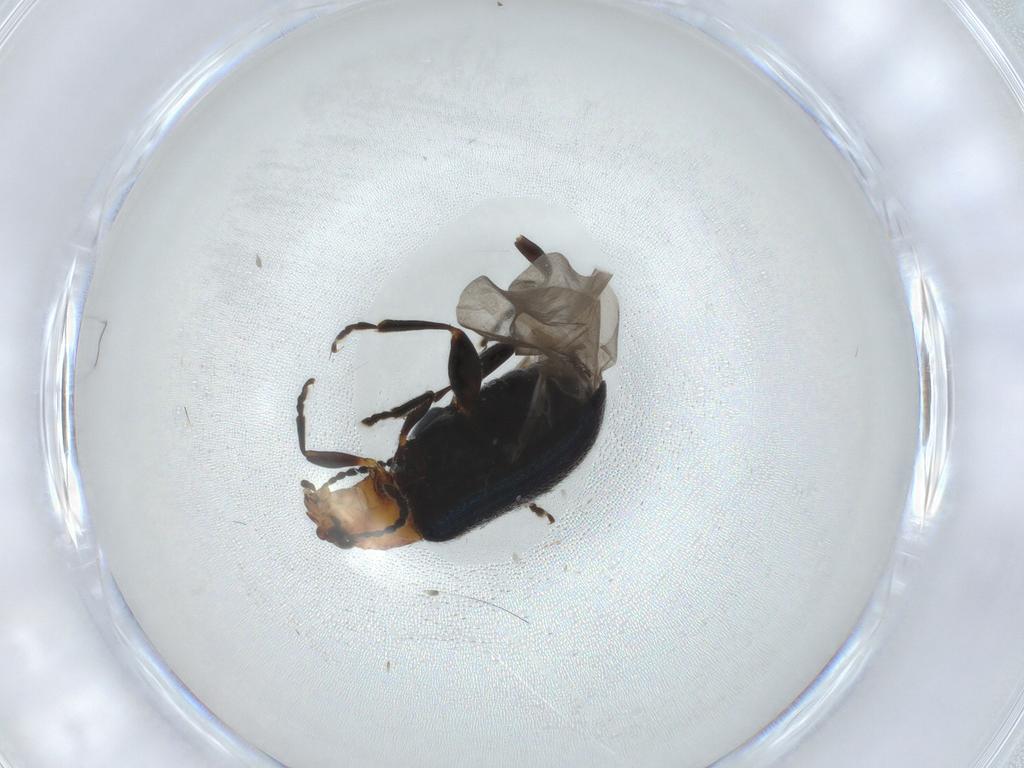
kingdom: Animalia
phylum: Arthropoda
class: Insecta
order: Coleoptera
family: Chrysomelidae
